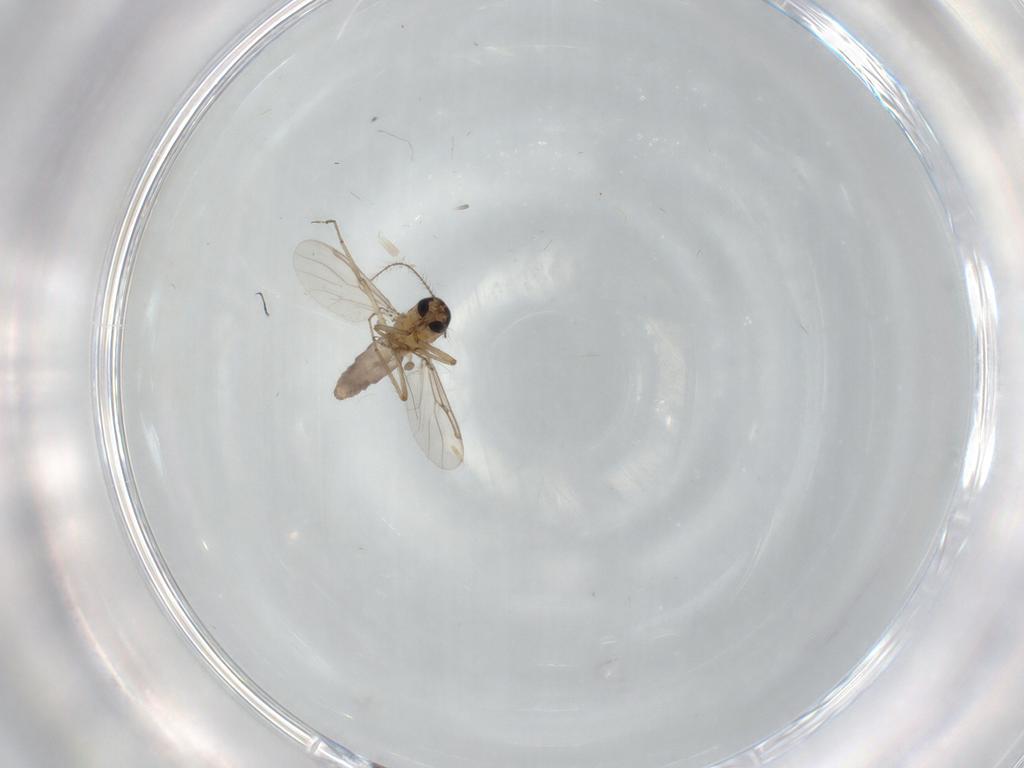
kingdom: Animalia
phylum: Arthropoda
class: Insecta
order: Diptera
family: Ceratopogonidae
